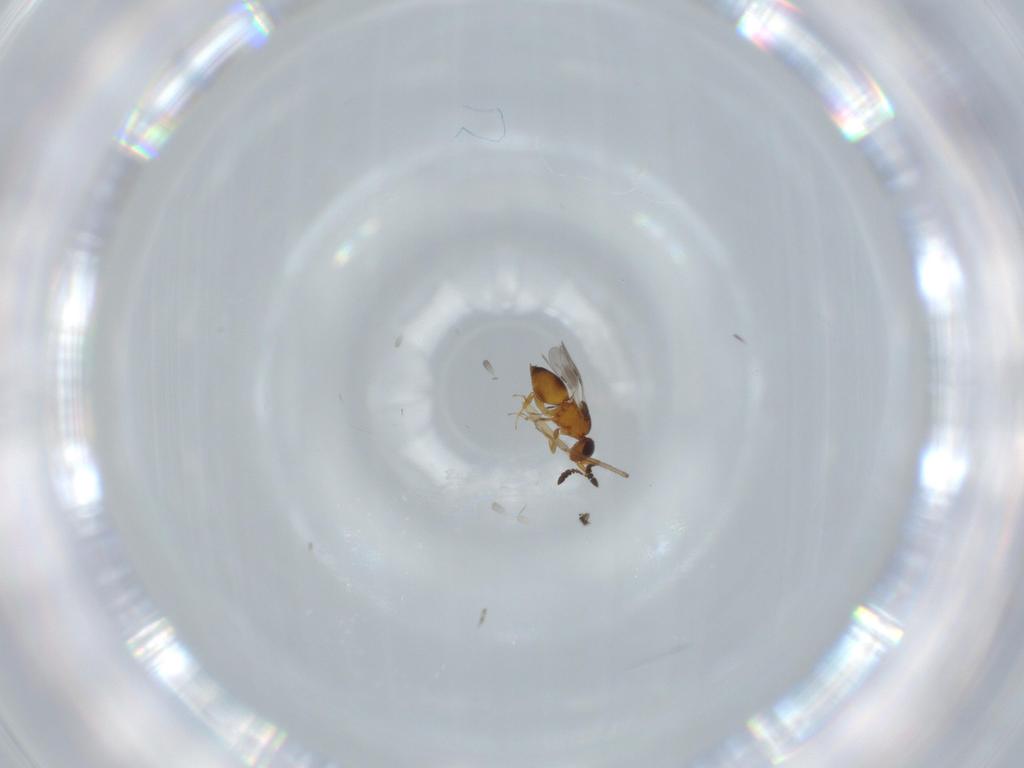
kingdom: Animalia
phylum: Arthropoda
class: Insecta
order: Hymenoptera
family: Ceraphronidae
